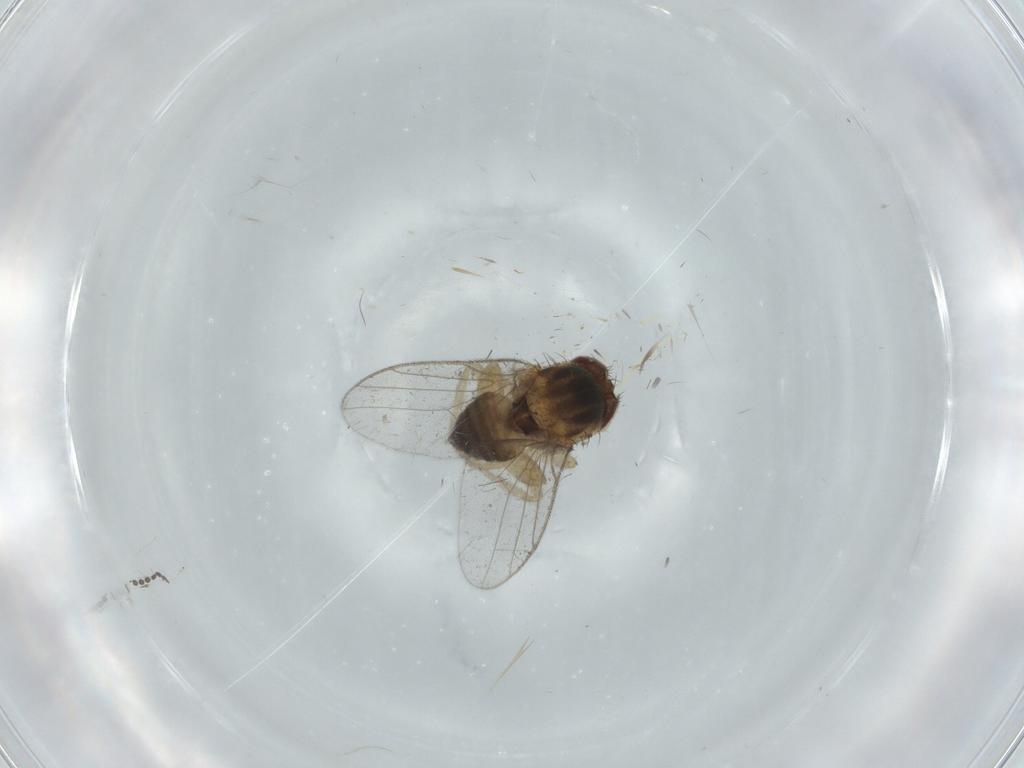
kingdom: Animalia
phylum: Arthropoda
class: Insecta
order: Diptera
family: Chloropidae
